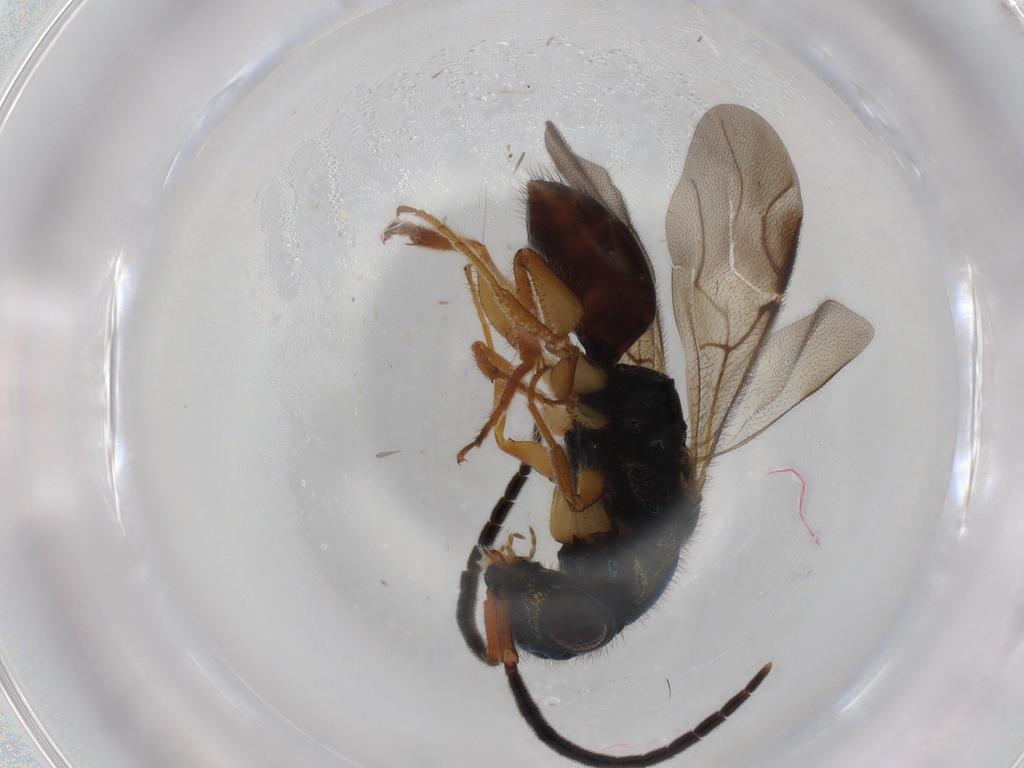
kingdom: Animalia
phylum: Arthropoda
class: Insecta
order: Hymenoptera
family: Chrysididae
